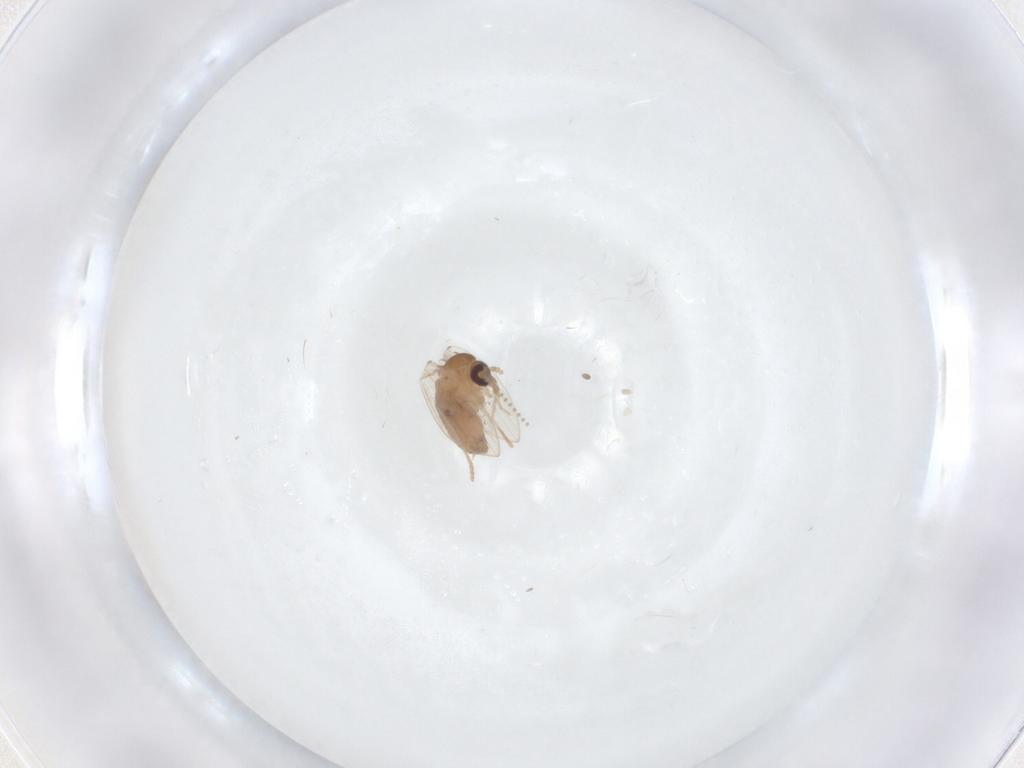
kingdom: Animalia
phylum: Arthropoda
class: Insecta
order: Diptera
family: Psychodidae
